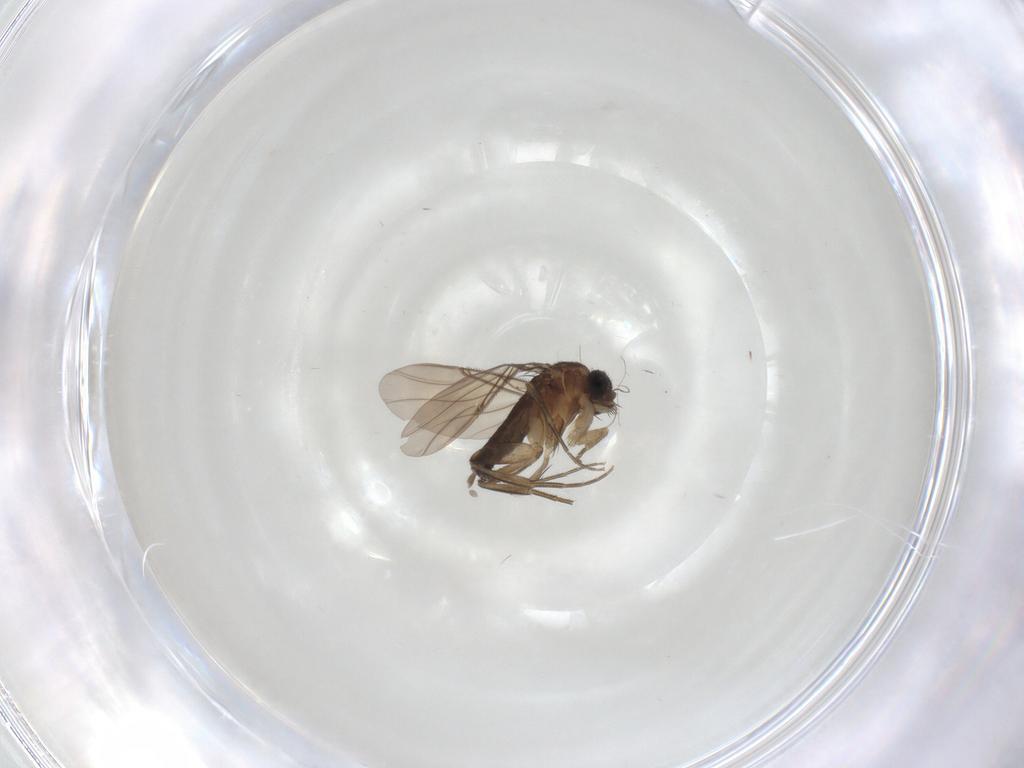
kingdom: Animalia
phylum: Arthropoda
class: Insecta
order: Diptera
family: Phoridae
